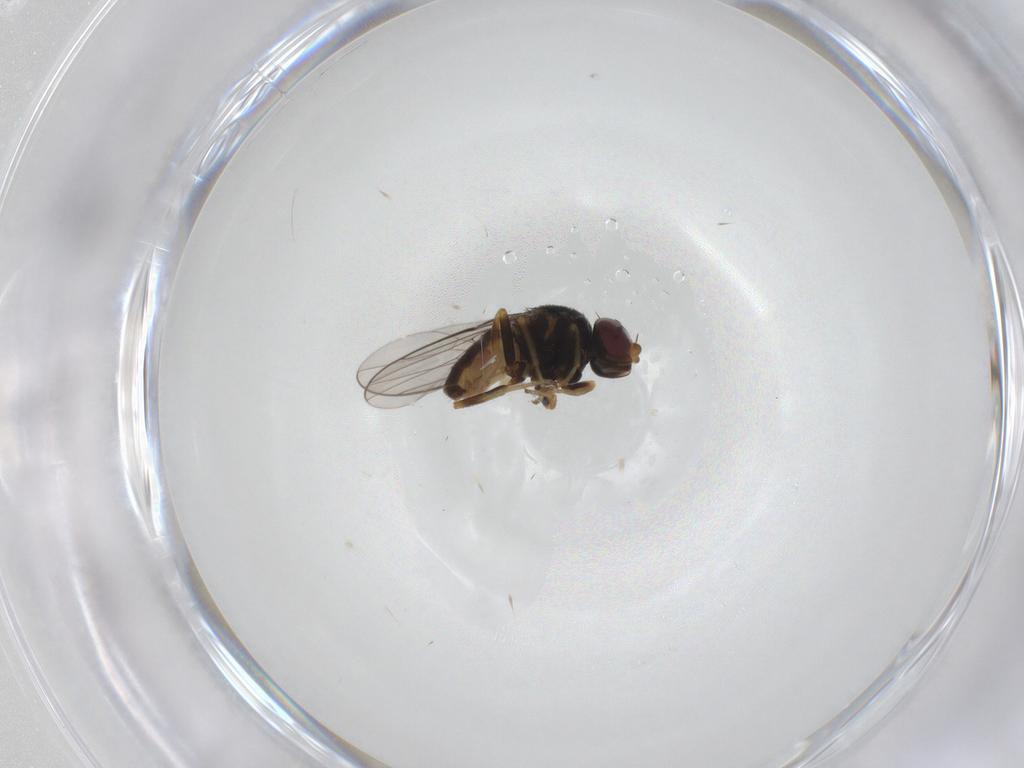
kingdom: Animalia
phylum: Arthropoda
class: Insecta
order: Diptera
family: Chloropidae
